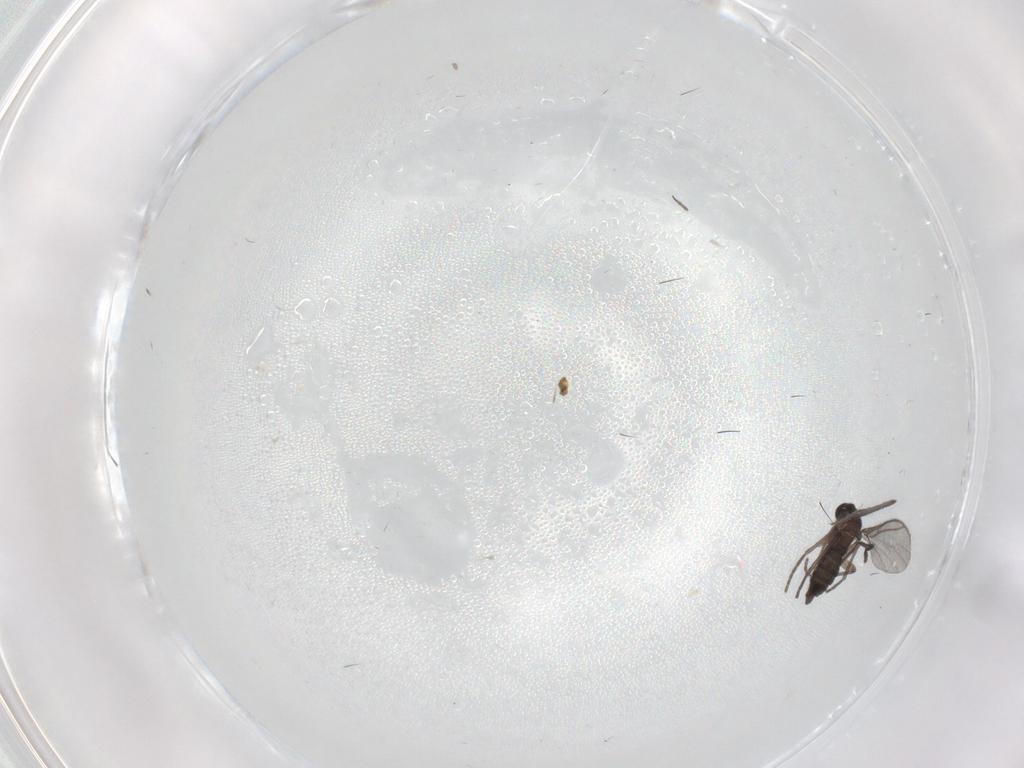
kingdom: Animalia
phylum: Arthropoda
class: Insecta
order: Diptera
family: Sciaridae
